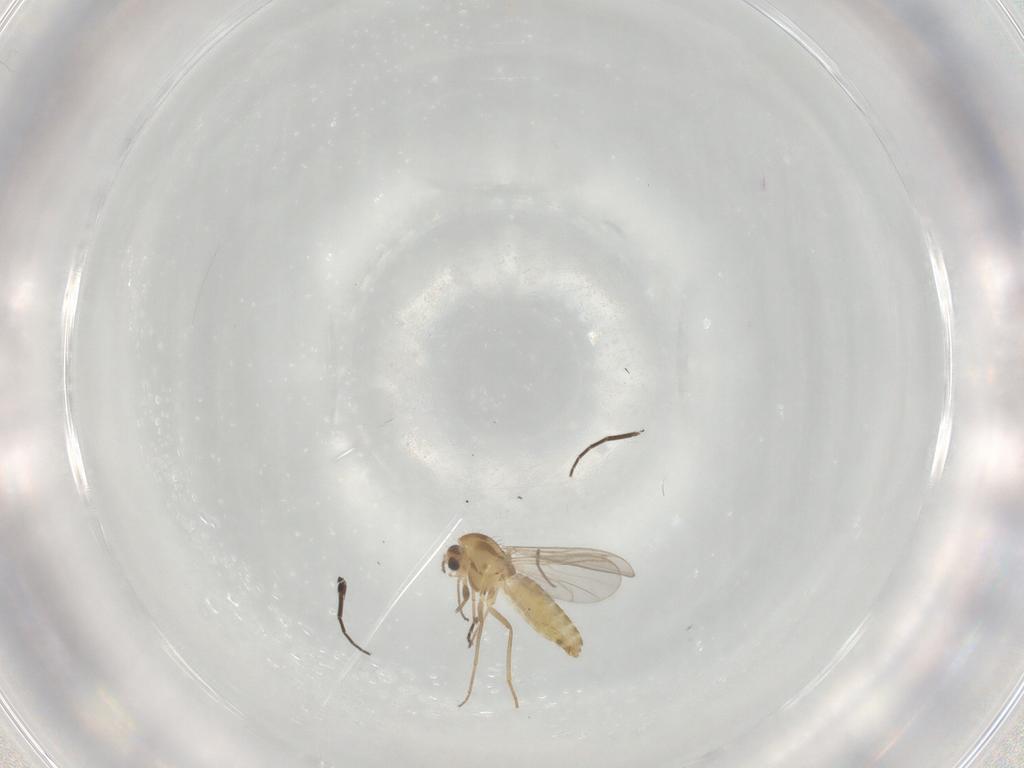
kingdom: Animalia
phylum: Arthropoda
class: Insecta
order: Diptera
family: Chironomidae
